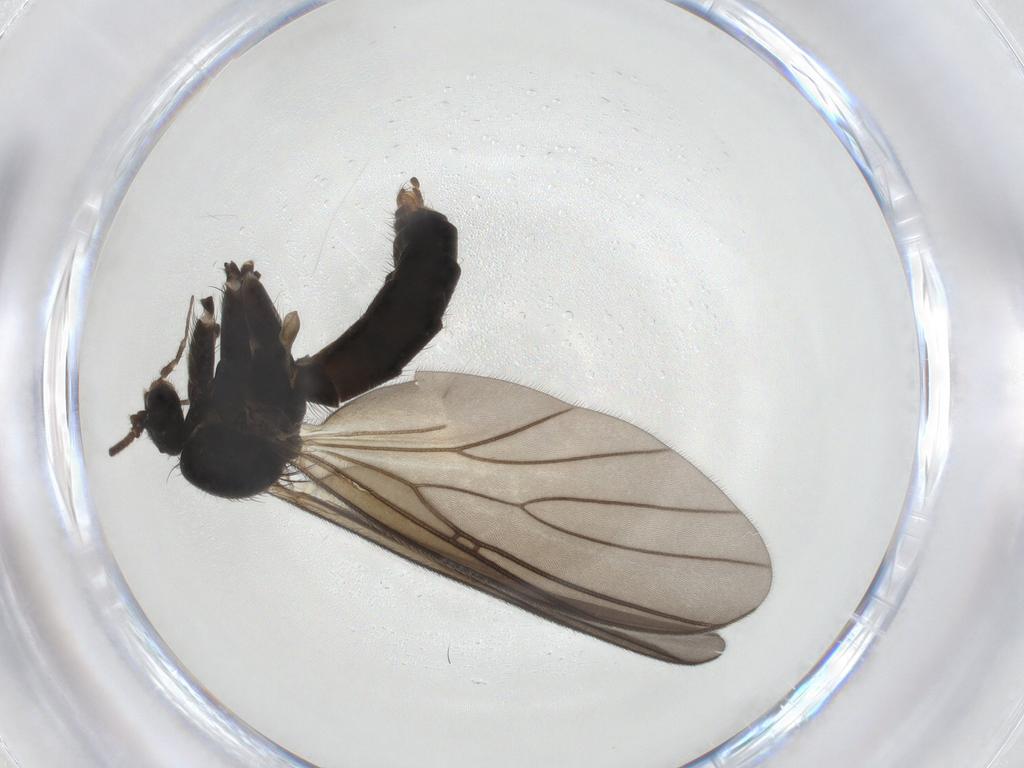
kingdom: Animalia
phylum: Arthropoda
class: Insecta
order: Diptera
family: Mycetophilidae
